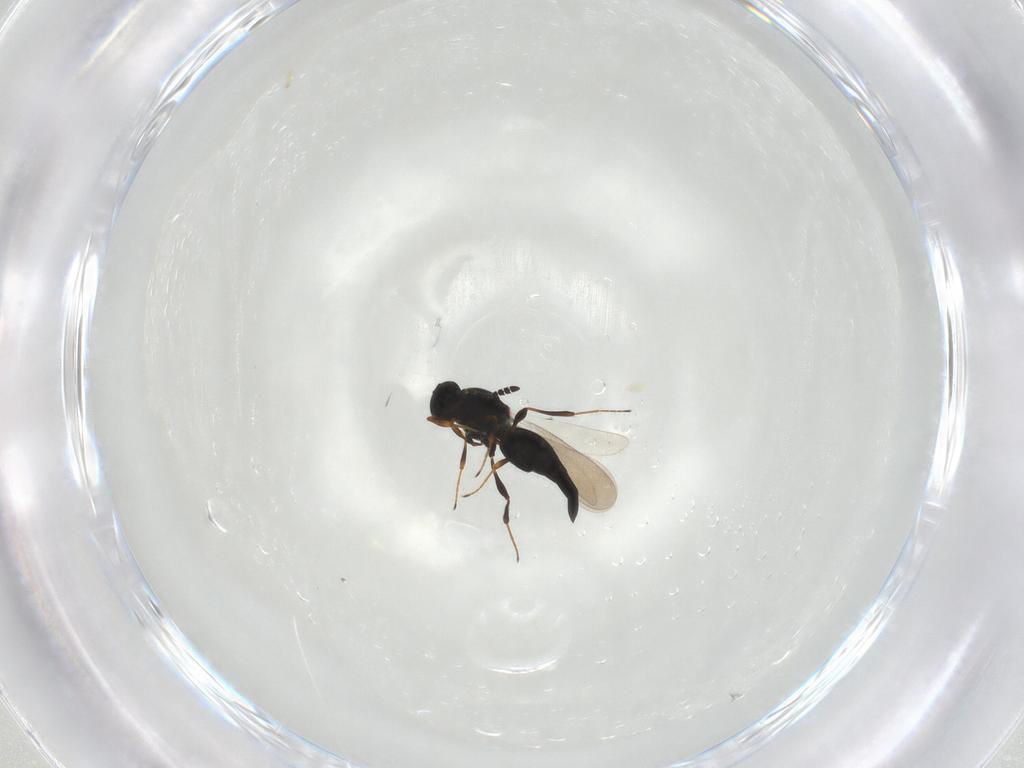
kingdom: Animalia
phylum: Arthropoda
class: Insecta
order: Hymenoptera
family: Platygastridae
